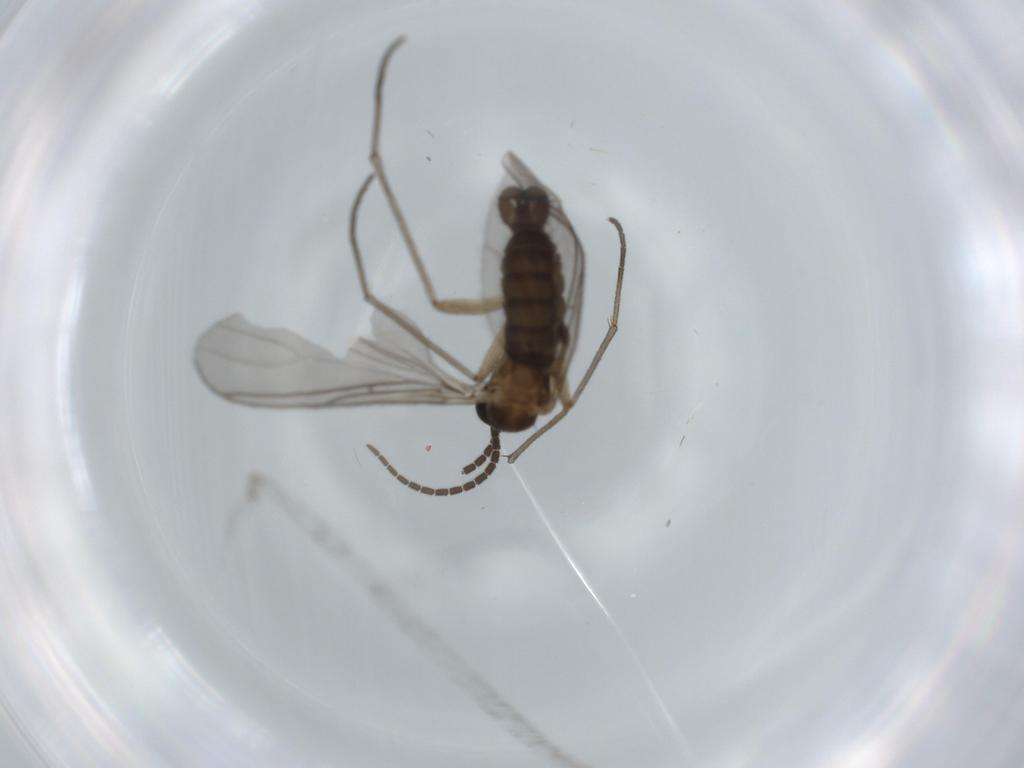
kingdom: Animalia
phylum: Arthropoda
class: Insecta
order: Diptera
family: Sciaridae
